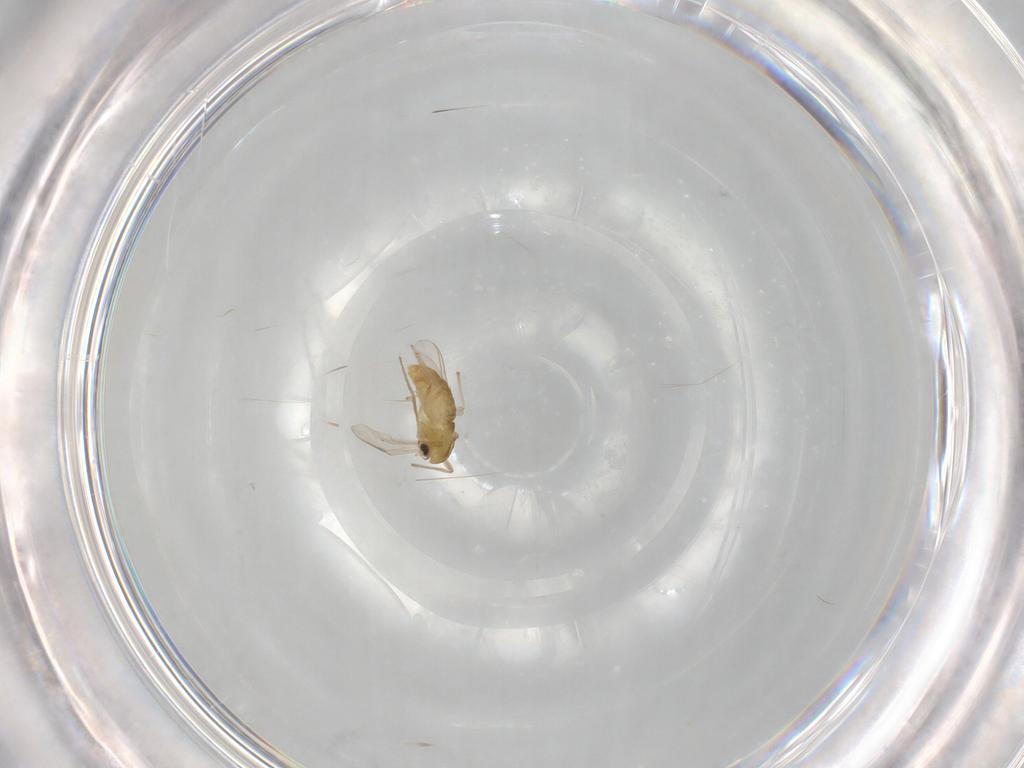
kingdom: Animalia
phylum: Arthropoda
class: Insecta
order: Diptera
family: Chironomidae
